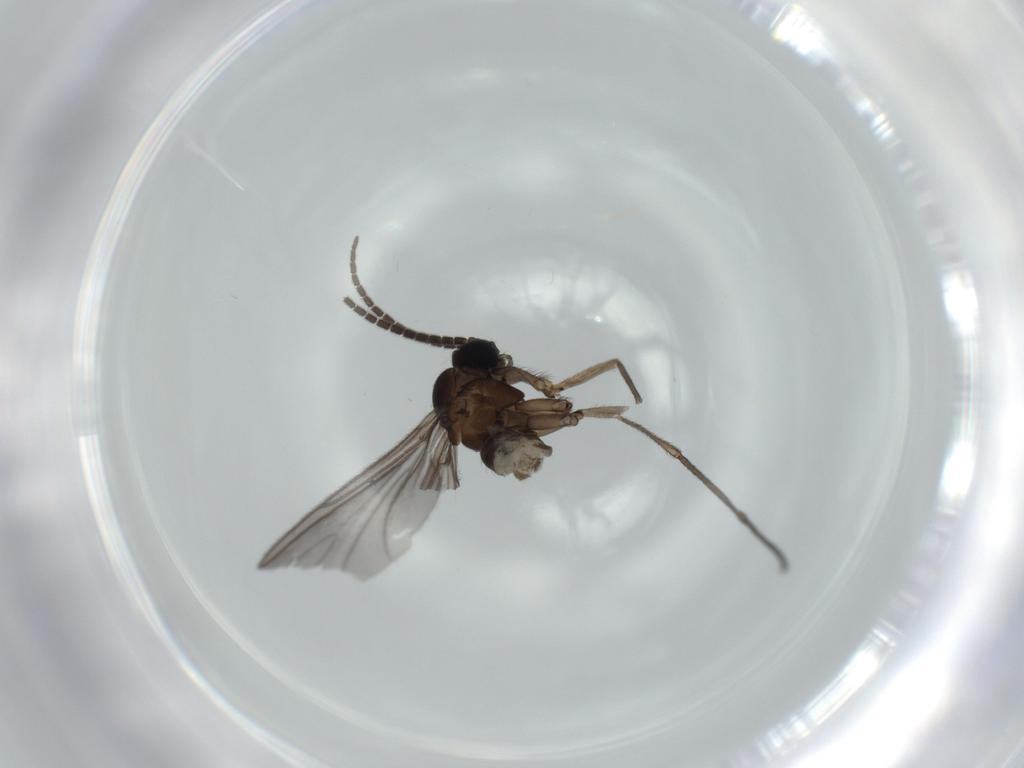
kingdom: Animalia
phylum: Arthropoda
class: Insecta
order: Diptera
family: Sciaridae
